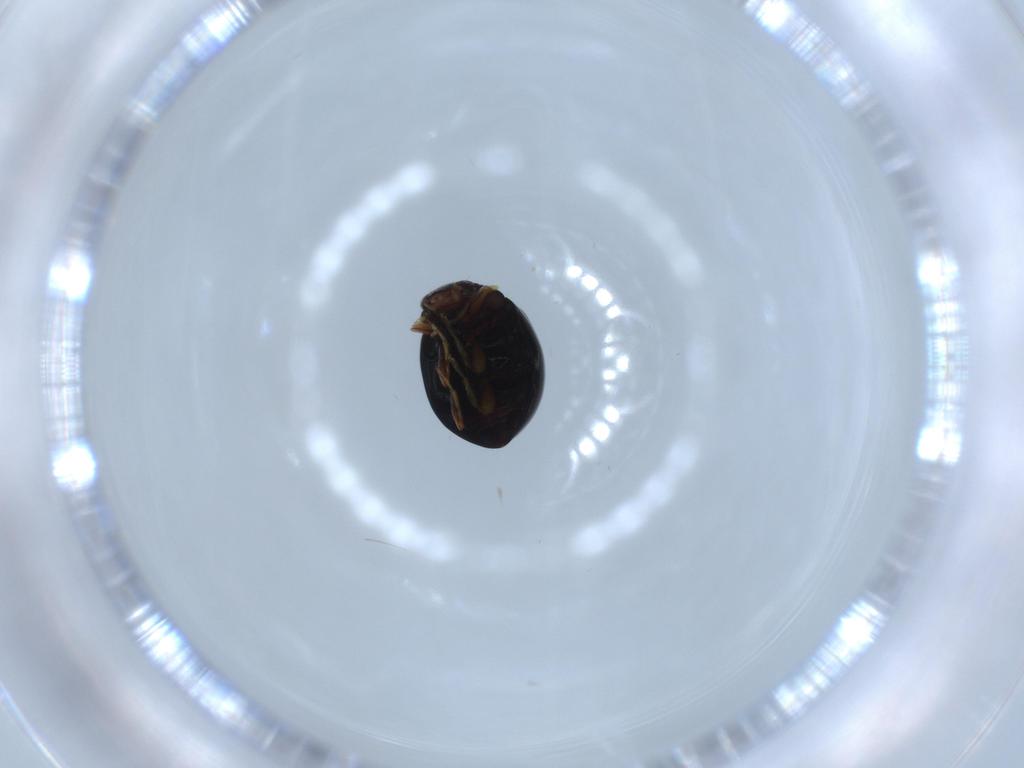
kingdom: Animalia
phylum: Arthropoda
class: Insecta
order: Coleoptera
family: Coccinellidae
